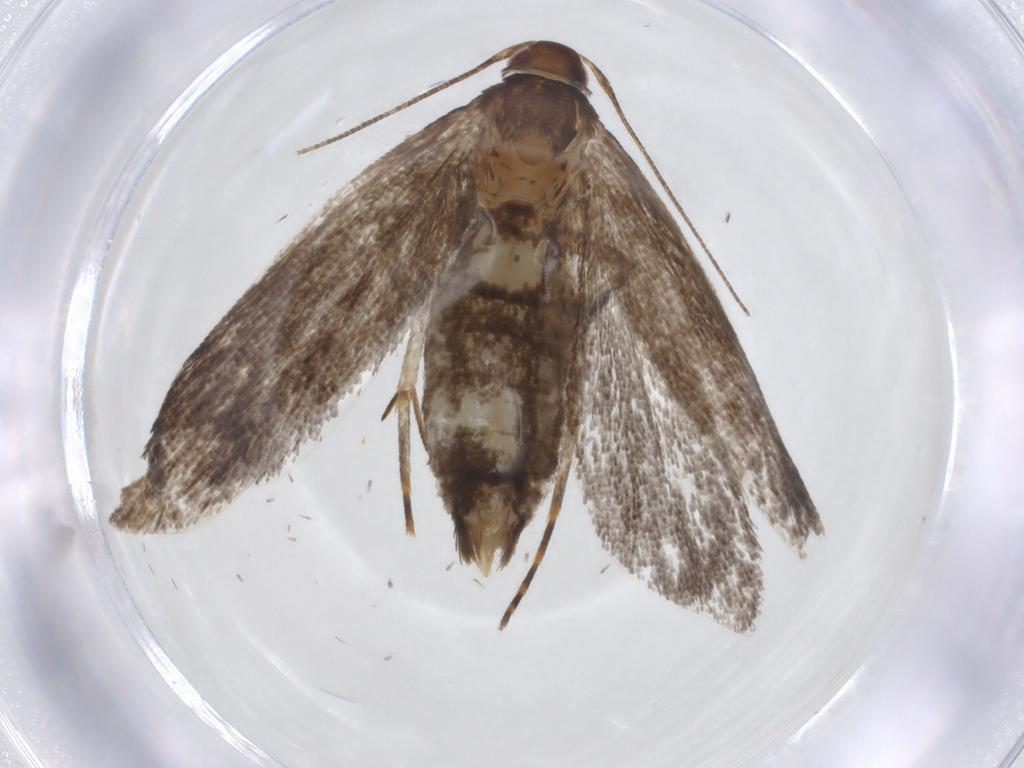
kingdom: Animalia
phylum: Arthropoda
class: Insecta
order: Lepidoptera
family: Gelechiidae
